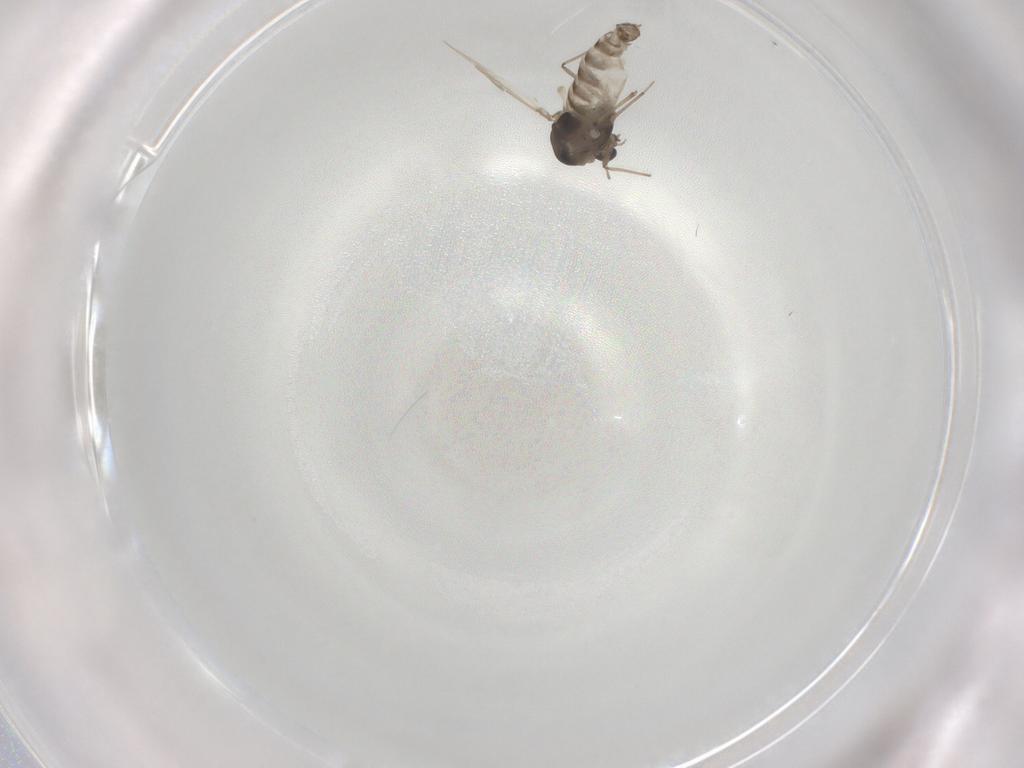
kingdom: Animalia
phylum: Arthropoda
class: Insecta
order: Diptera
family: Chironomidae
